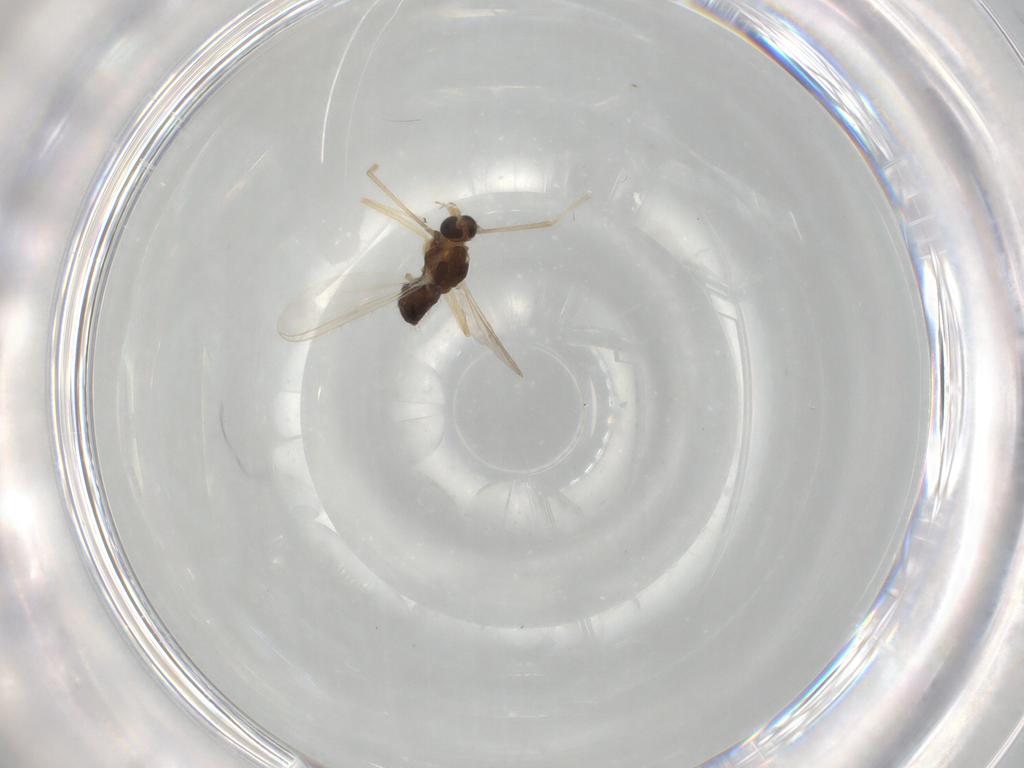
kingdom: Animalia
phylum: Arthropoda
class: Insecta
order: Diptera
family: Chironomidae
